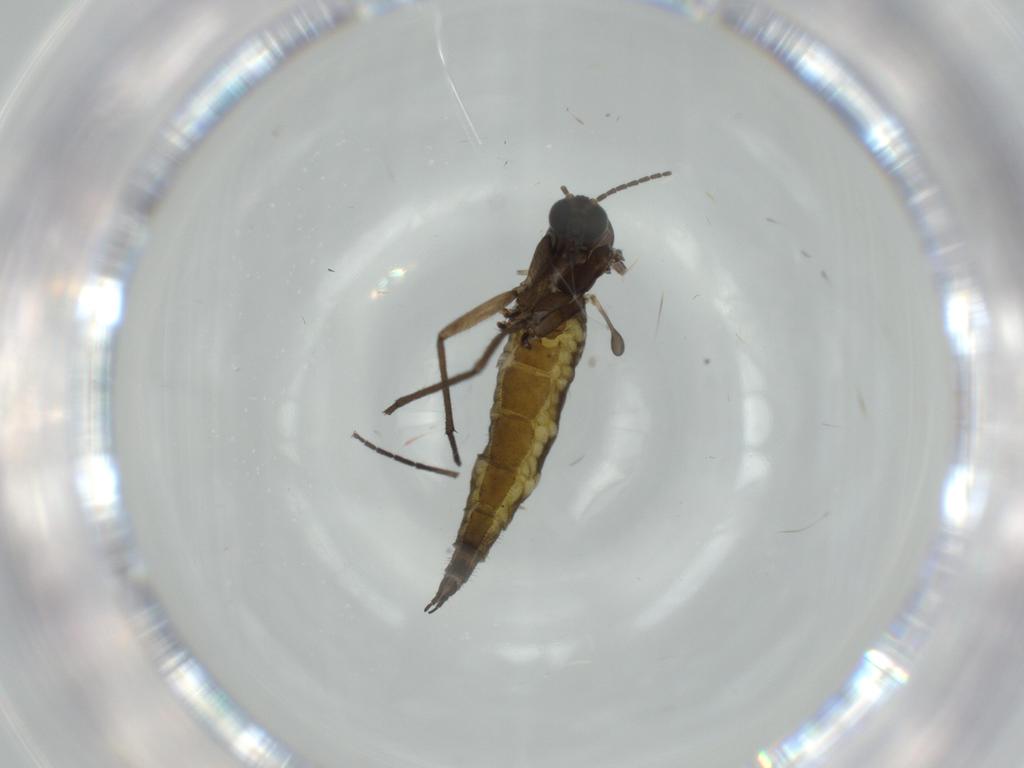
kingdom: Animalia
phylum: Arthropoda
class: Insecta
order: Diptera
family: Sciaridae
